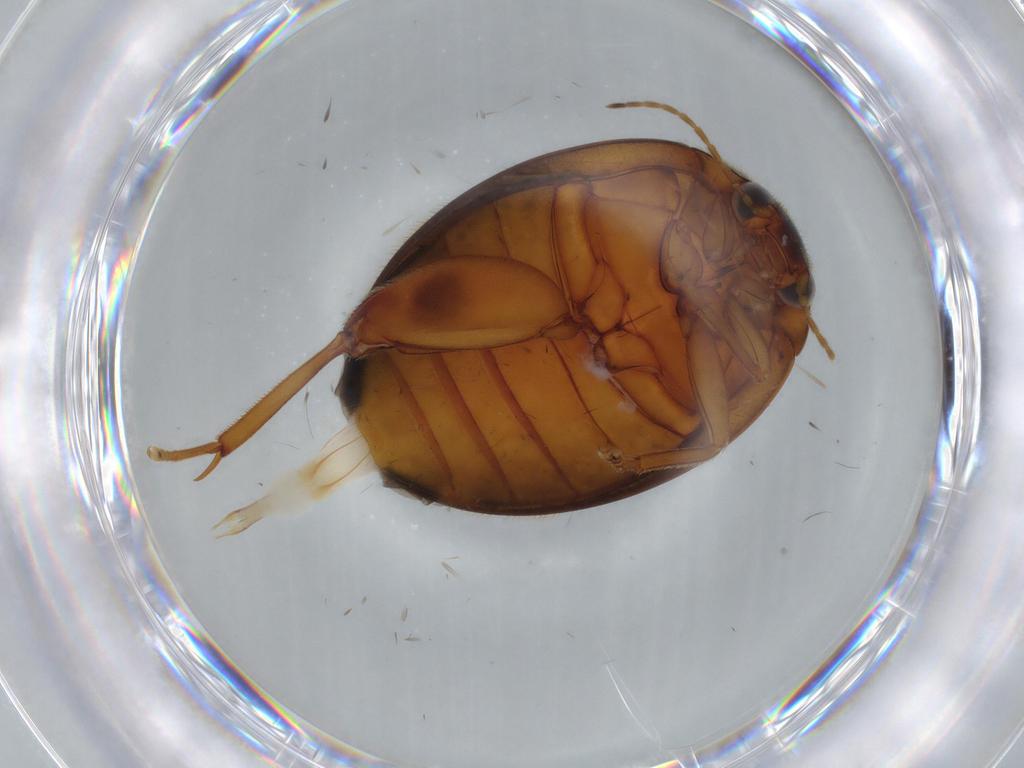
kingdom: Animalia
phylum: Arthropoda
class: Insecta
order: Coleoptera
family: Scirtidae
